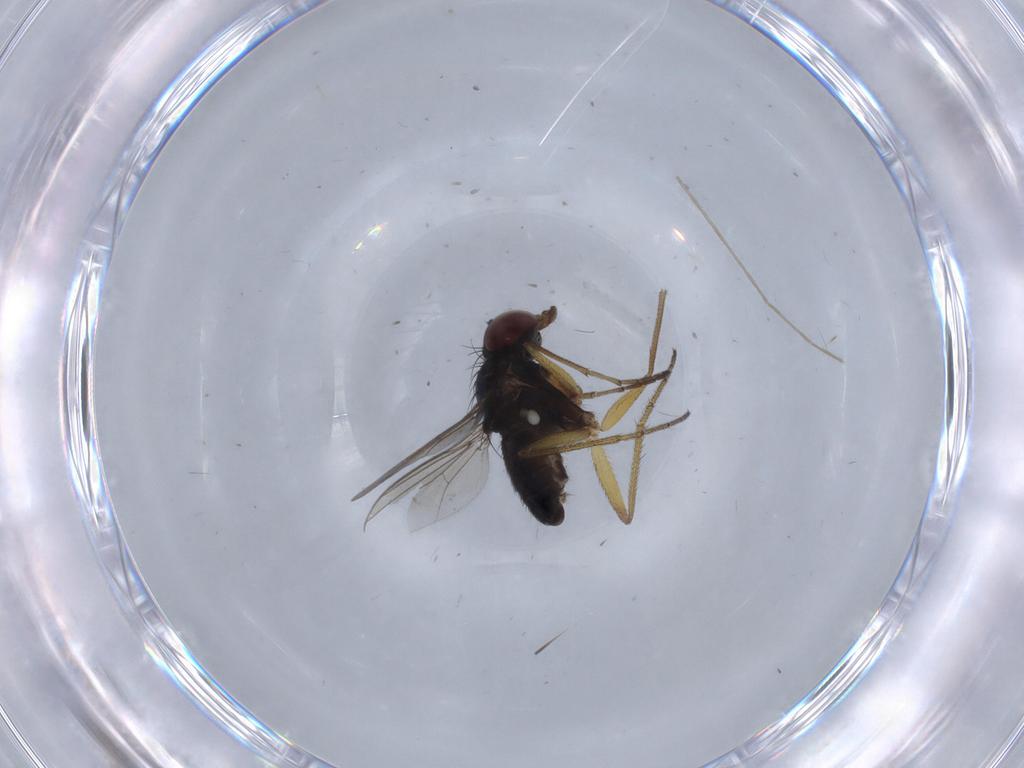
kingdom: Animalia
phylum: Arthropoda
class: Insecta
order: Diptera
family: Dolichopodidae
